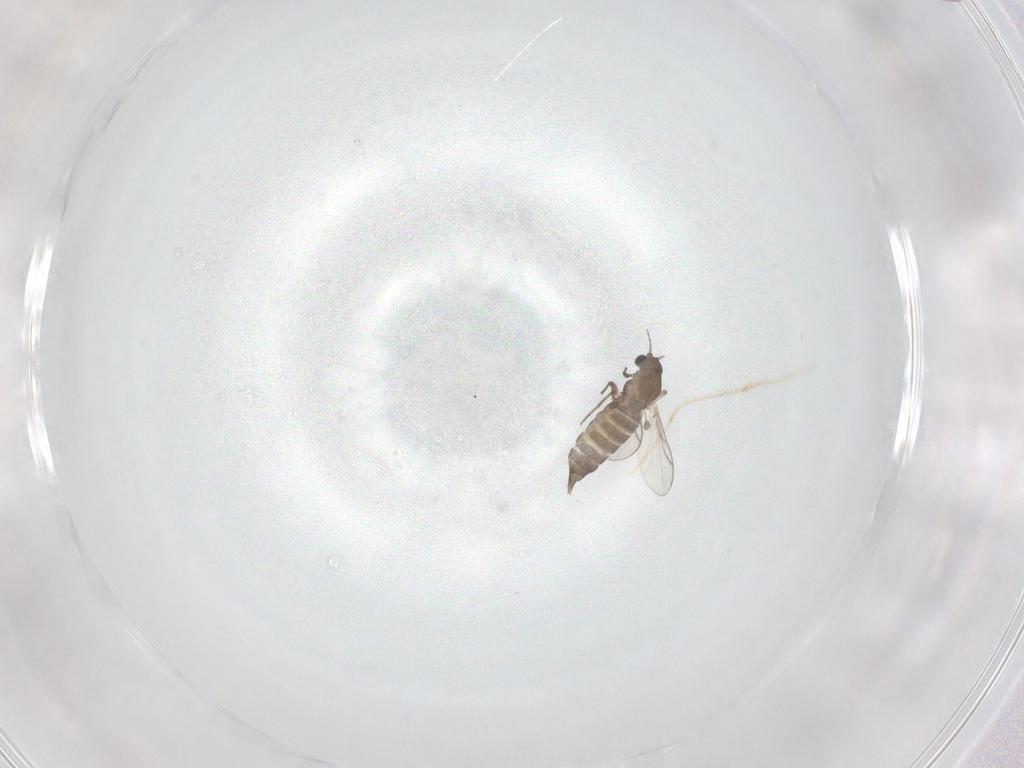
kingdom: Animalia
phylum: Arthropoda
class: Insecta
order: Diptera
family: Chironomidae
